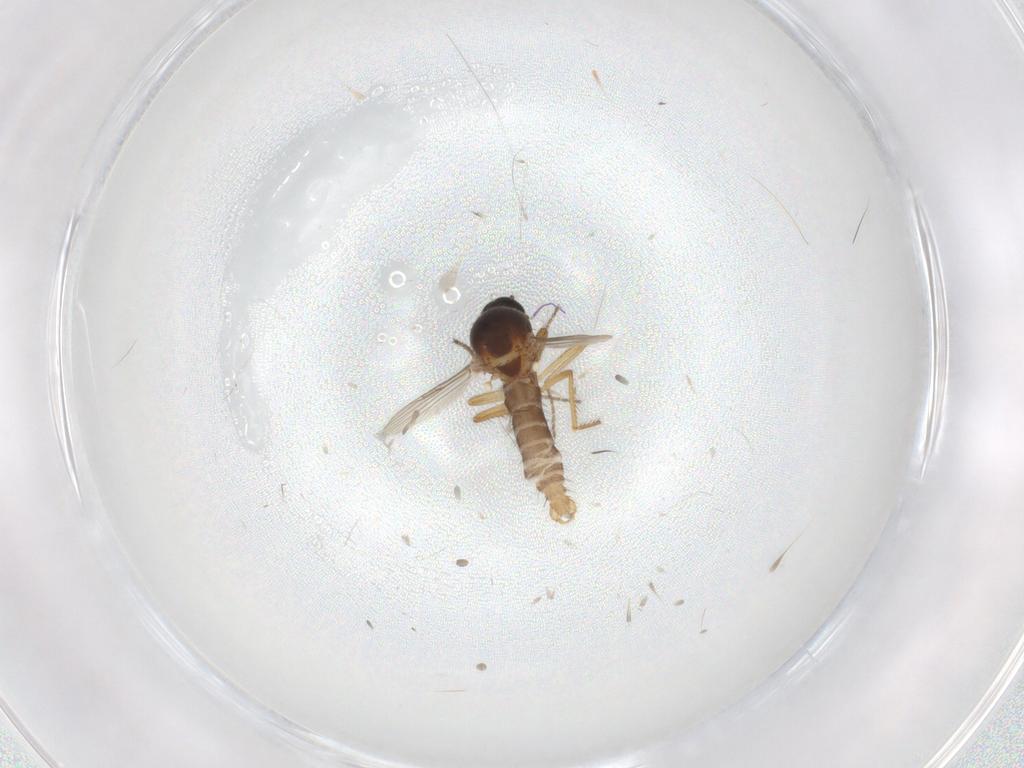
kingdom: Animalia
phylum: Arthropoda
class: Insecta
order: Diptera
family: Ceratopogonidae
